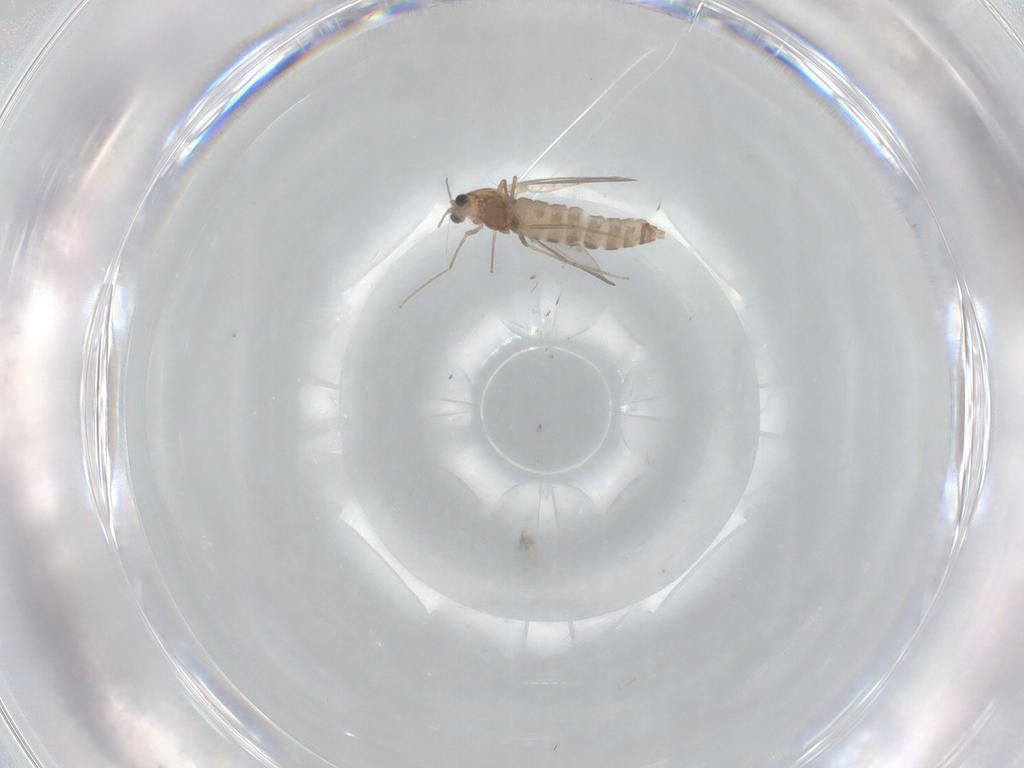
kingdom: Animalia
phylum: Arthropoda
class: Insecta
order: Diptera
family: Chironomidae
